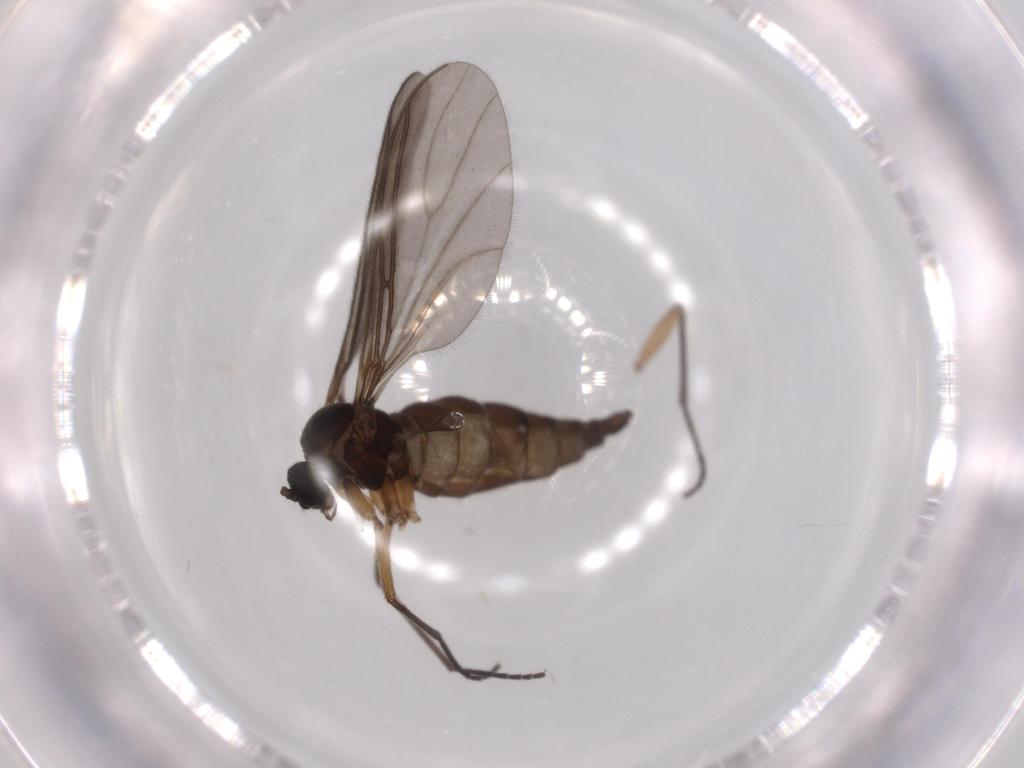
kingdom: Animalia
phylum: Arthropoda
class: Insecta
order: Diptera
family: Sciaridae
